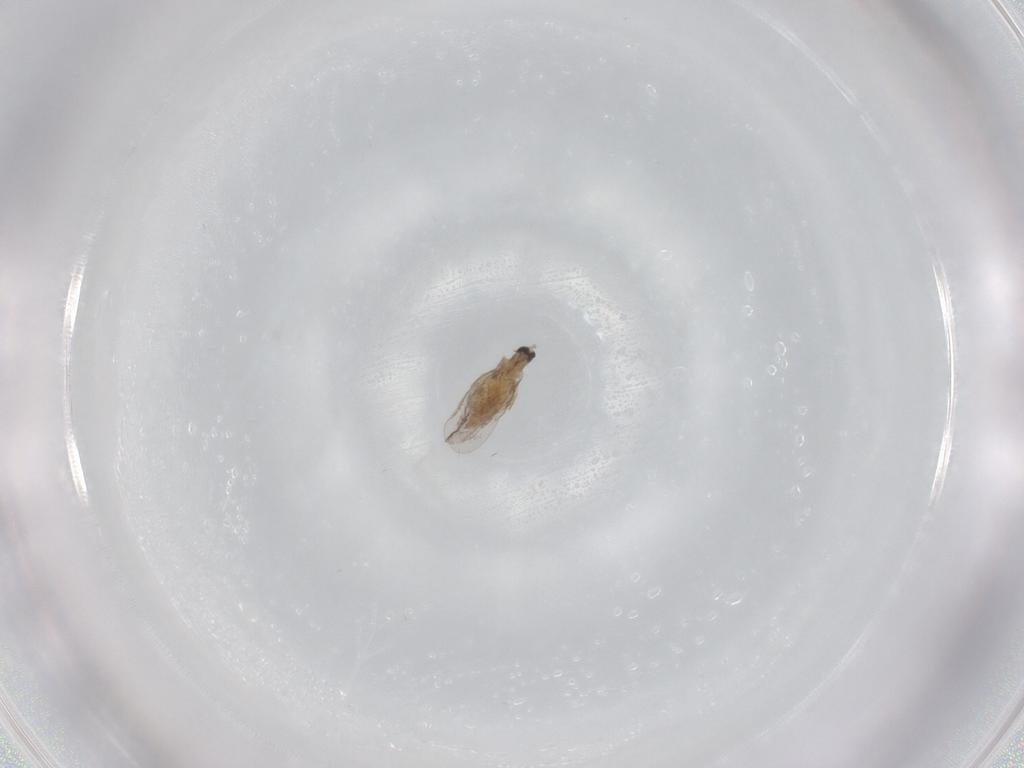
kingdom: Animalia
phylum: Arthropoda
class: Insecta
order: Diptera
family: Cecidomyiidae
